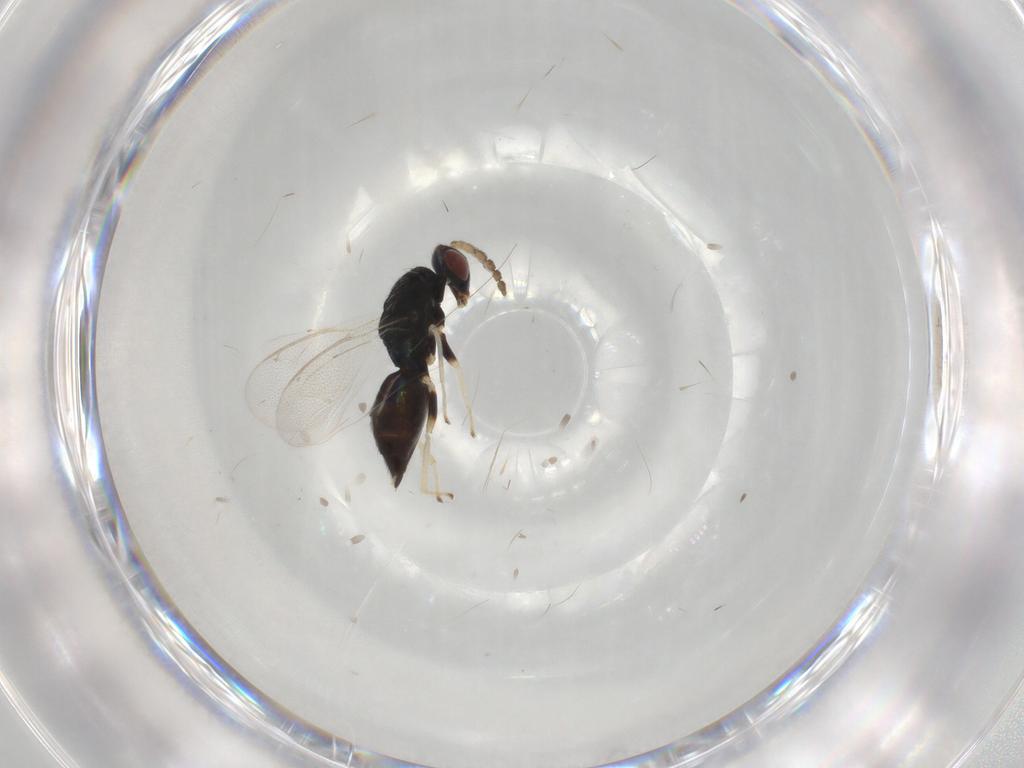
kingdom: Animalia
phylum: Arthropoda
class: Insecta
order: Hymenoptera
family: Eulophidae
